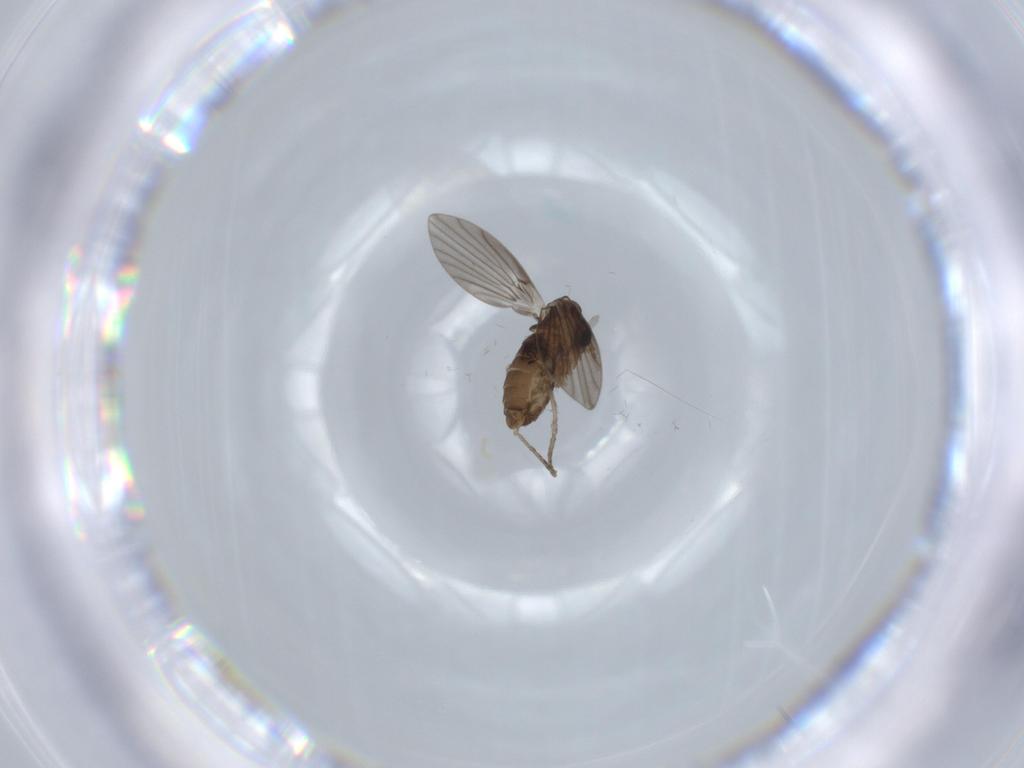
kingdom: Animalia
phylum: Arthropoda
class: Insecta
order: Diptera
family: Psychodidae
